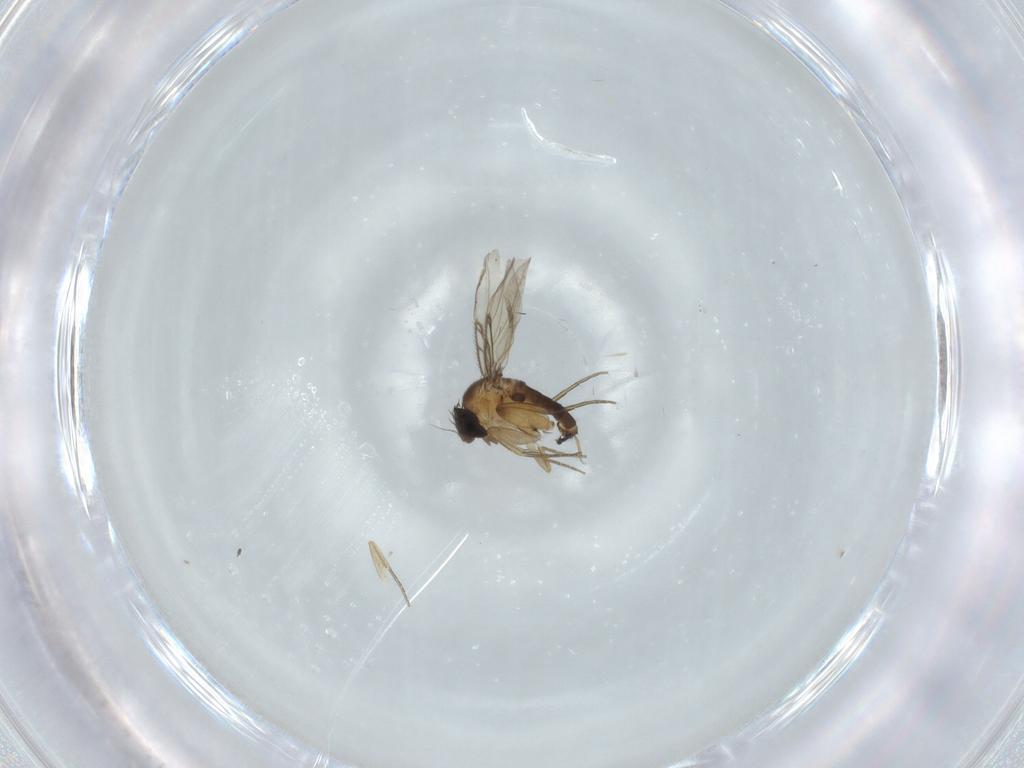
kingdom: Animalia
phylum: Arthropoda
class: Insecta
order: Diptera
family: Phoridae
